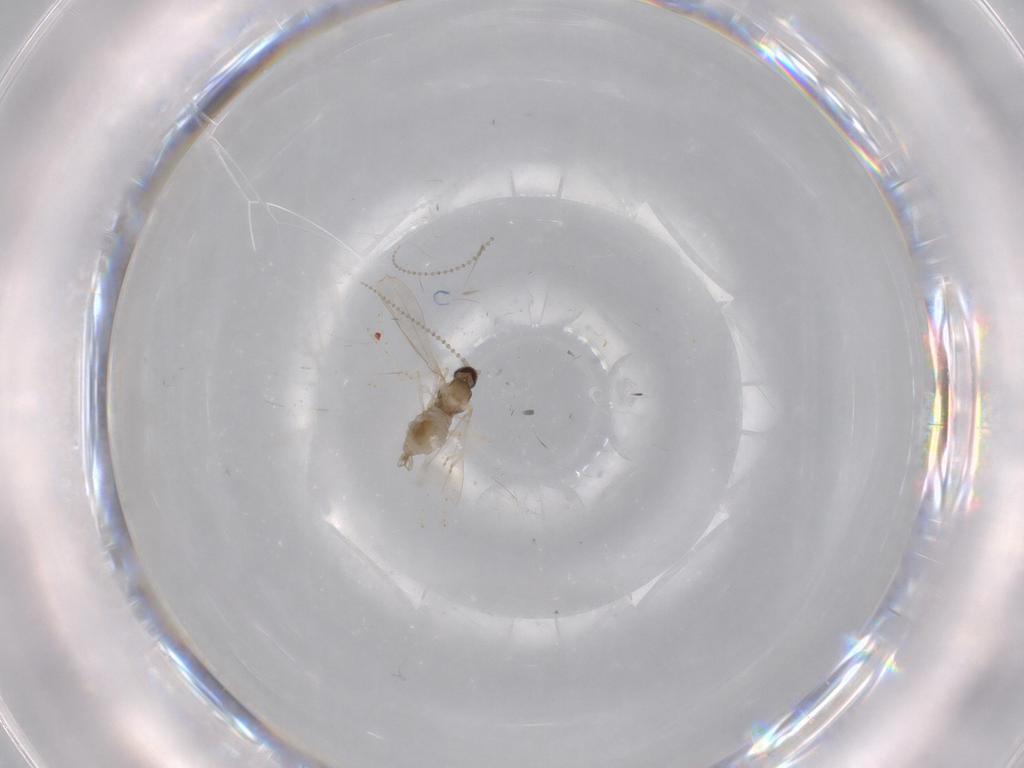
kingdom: Animalia
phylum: Arthropoda
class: Insecta
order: Diptera
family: Cecidomyiidae
